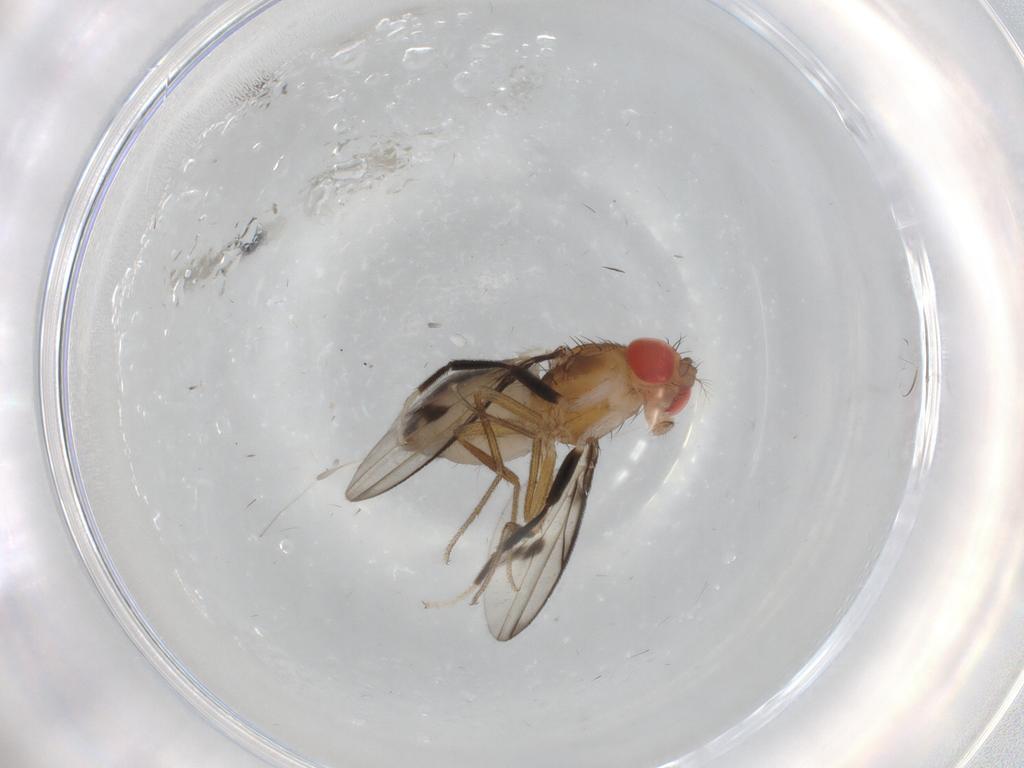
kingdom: Animalia
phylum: Arthropoda
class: Insecta
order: Diptera
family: Drosophilidae
